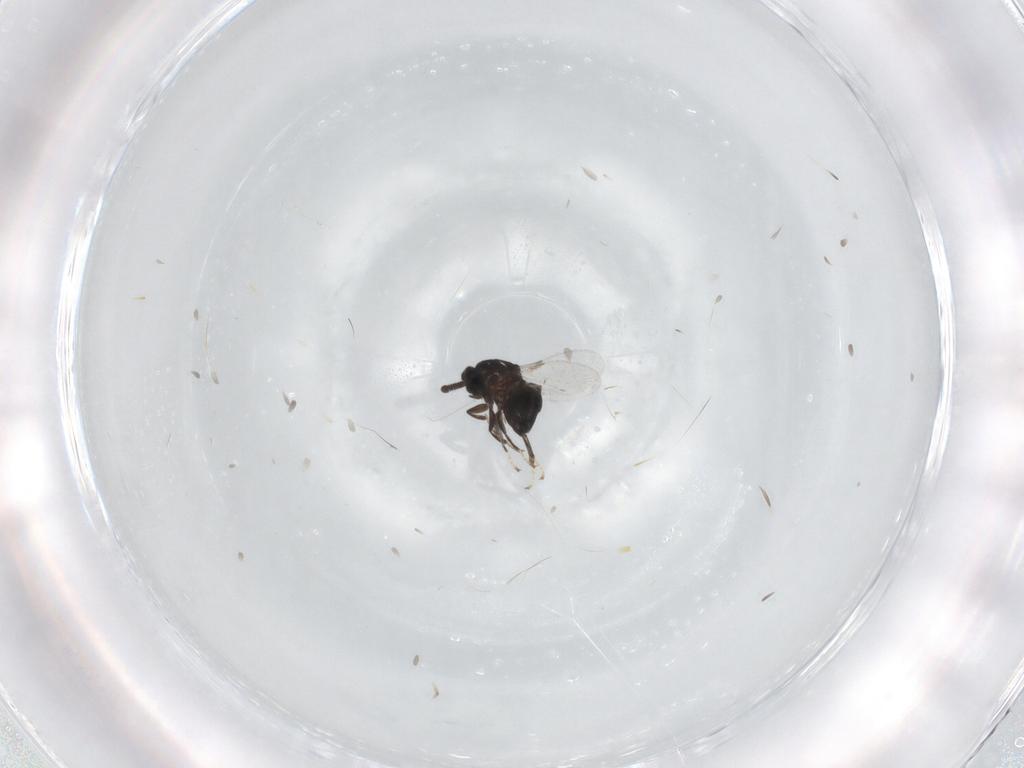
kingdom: Animalia
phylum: Arthropoda
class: Insecta
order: Diptera
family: Scatopsidae
